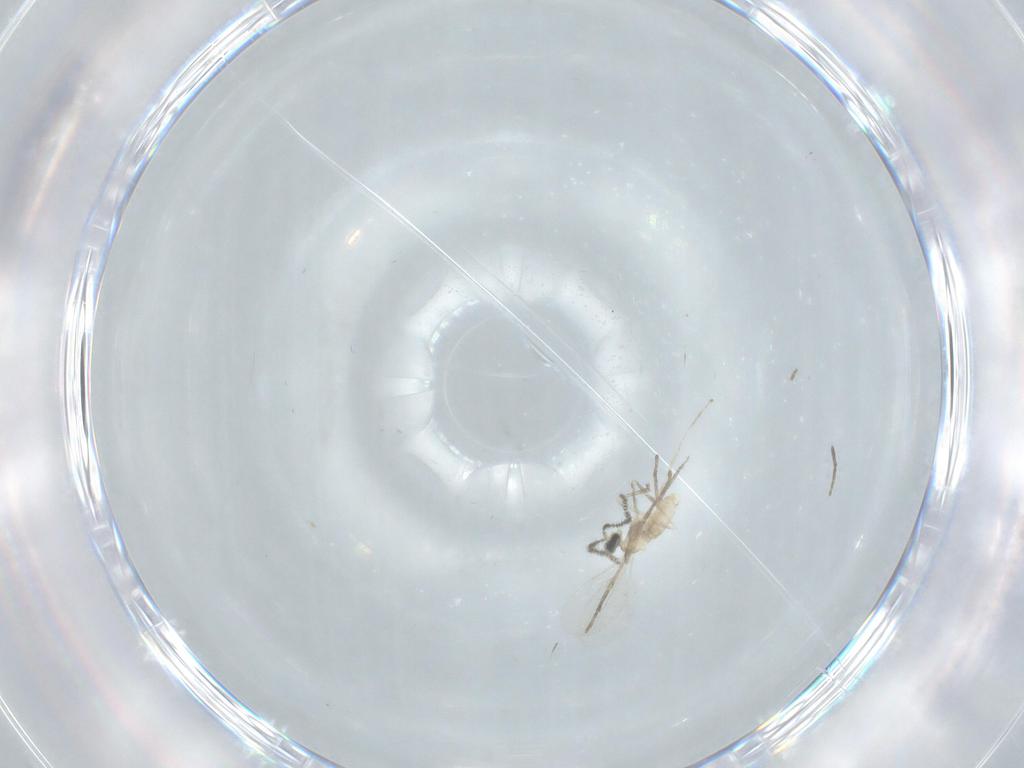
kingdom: Animalia
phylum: Arthropoda
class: Insecta
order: Diptera
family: Cecidomyiidae
